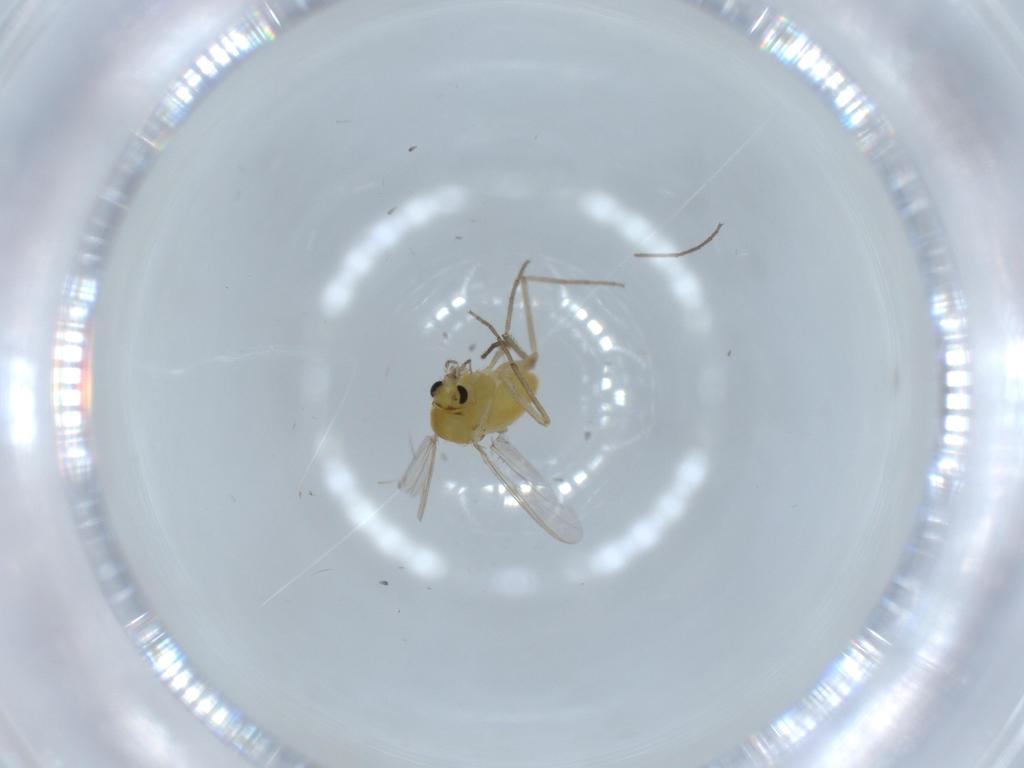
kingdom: Animalia
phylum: Arthropoda
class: Insecta
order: Diptera
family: Chironomidae
